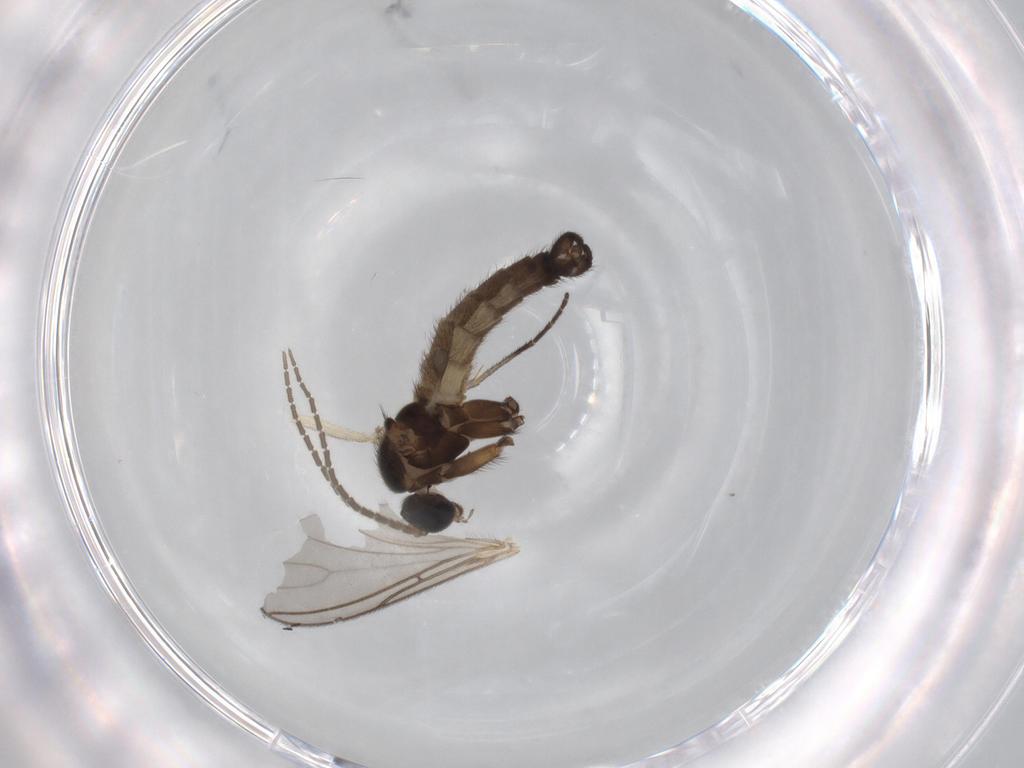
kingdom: Animalia
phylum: Arthropoda
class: Insecta
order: Diptera
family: Sciaridae
